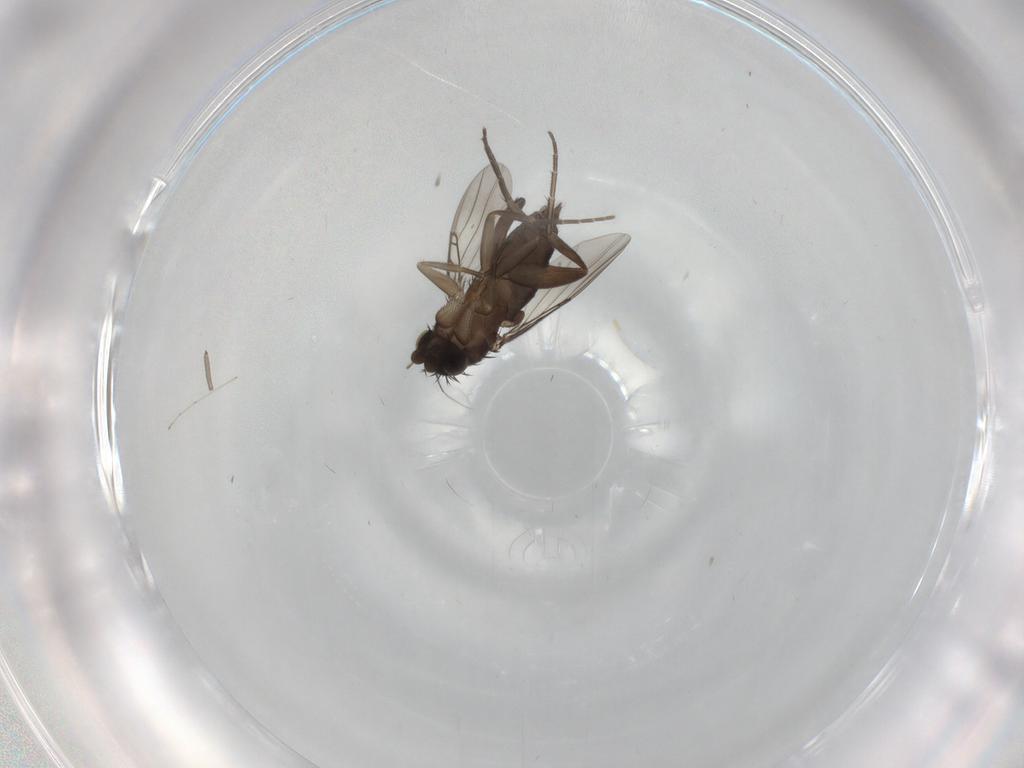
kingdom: Animalia
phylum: Arthropoda
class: Insecta
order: Diptera
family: Phoridae
